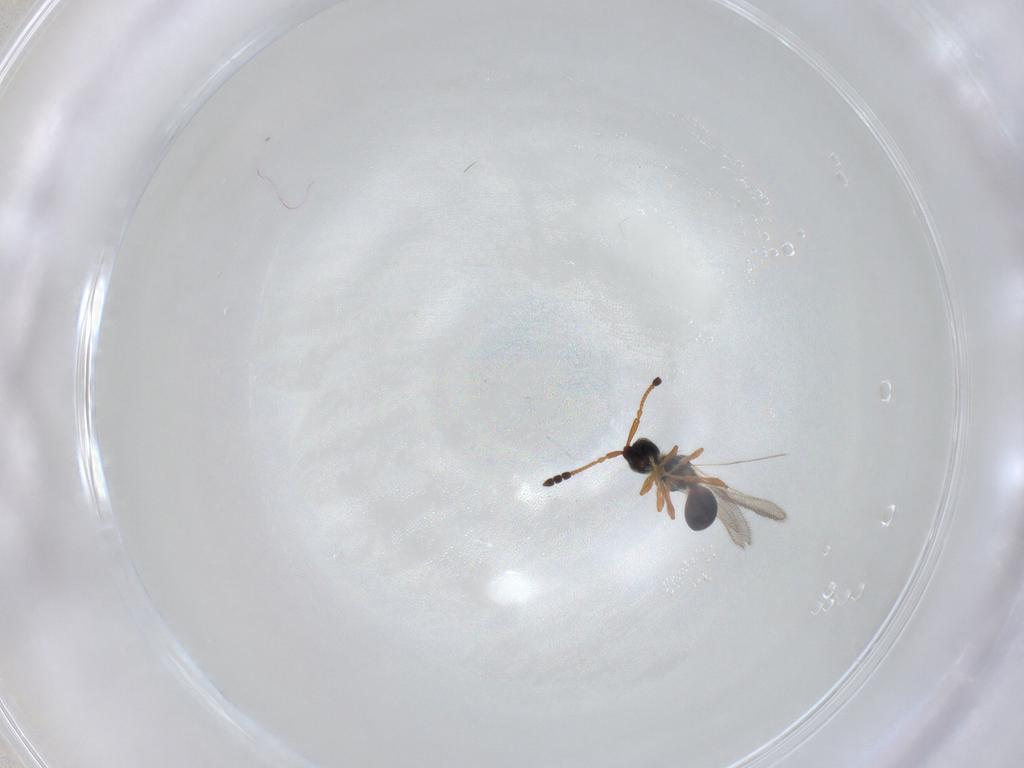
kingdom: Animalia
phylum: Arthropoda
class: Insecta
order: Hymenoptera
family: Diapriidae
